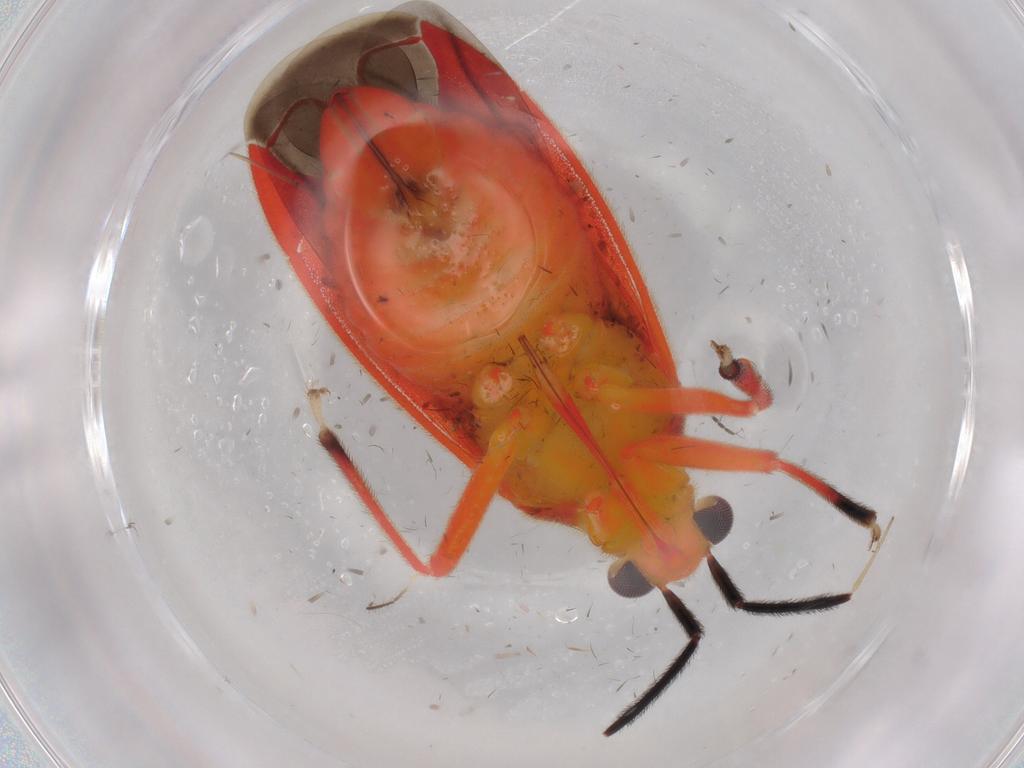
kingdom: Animalia
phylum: Arthropoda
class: Insecta
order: Hemiptera
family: Miridae
